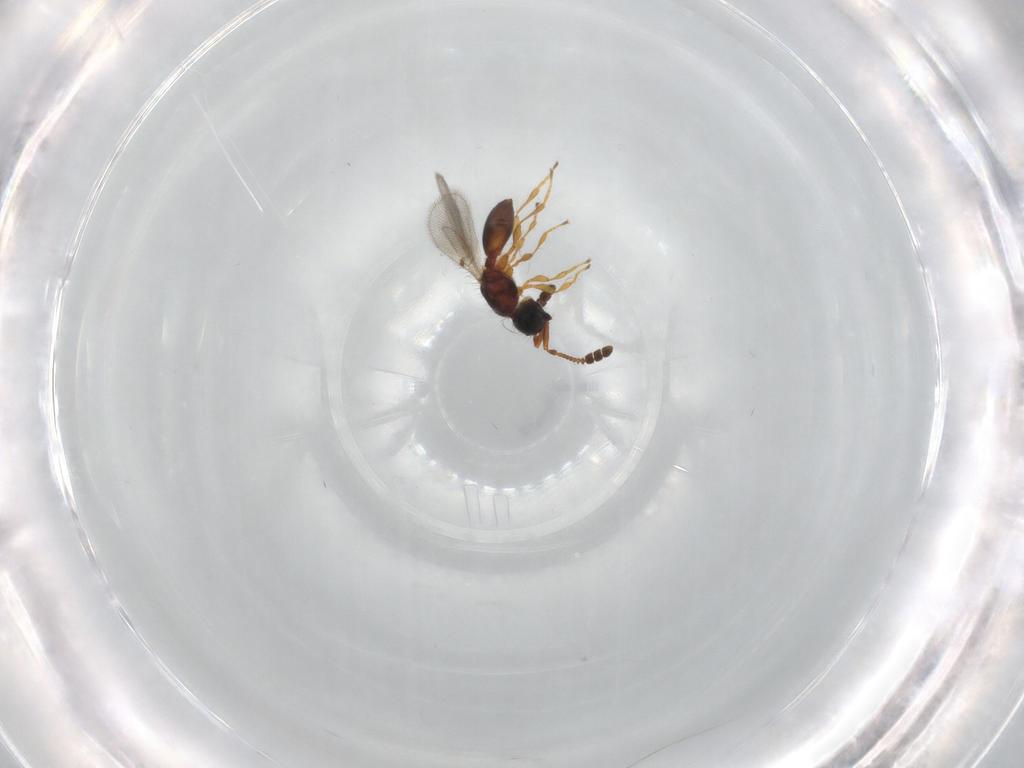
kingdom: Animalia
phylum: Arthropoda
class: Insecta
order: Hymenoptera
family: Diapriidae
